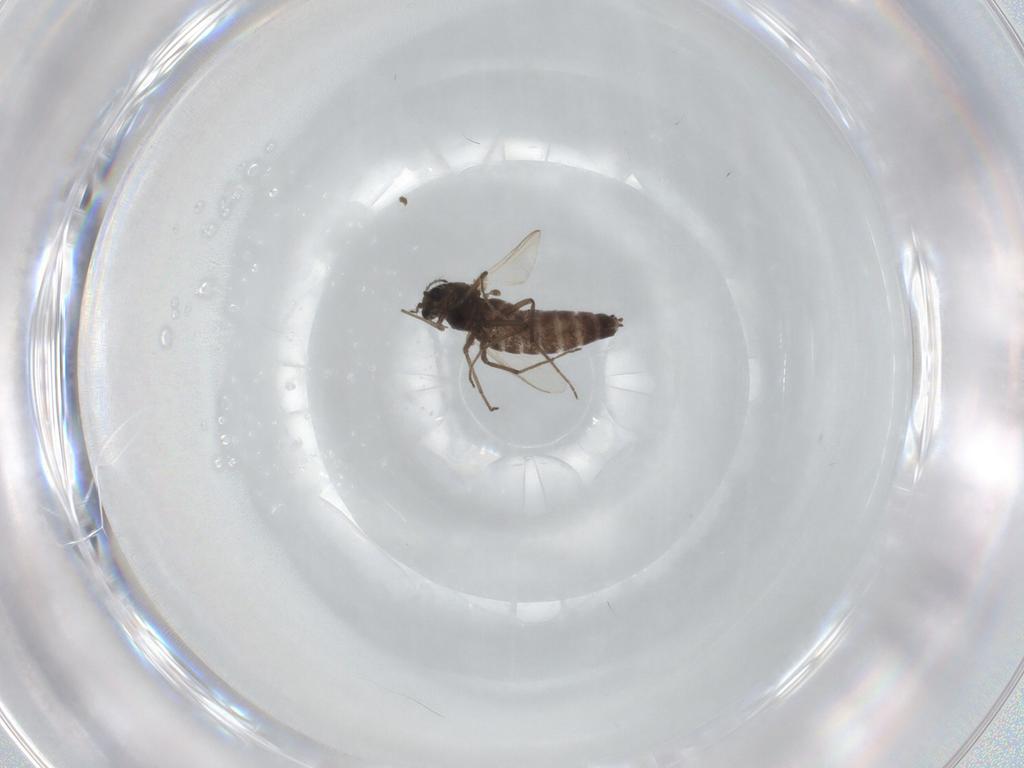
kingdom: Animalia
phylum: Arthropoda
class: Insecta
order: Diptera
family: Chironomidae
